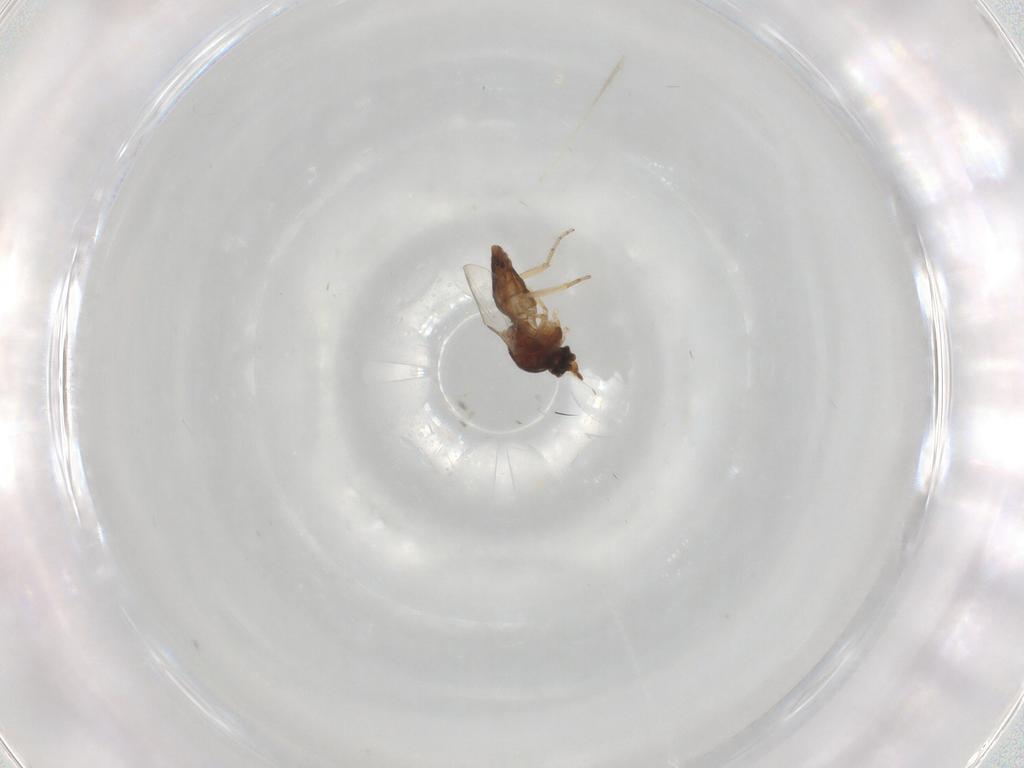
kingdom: Animalia
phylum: Arthropoda
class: Insecta
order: Diptera
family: Ceratopogonidae
